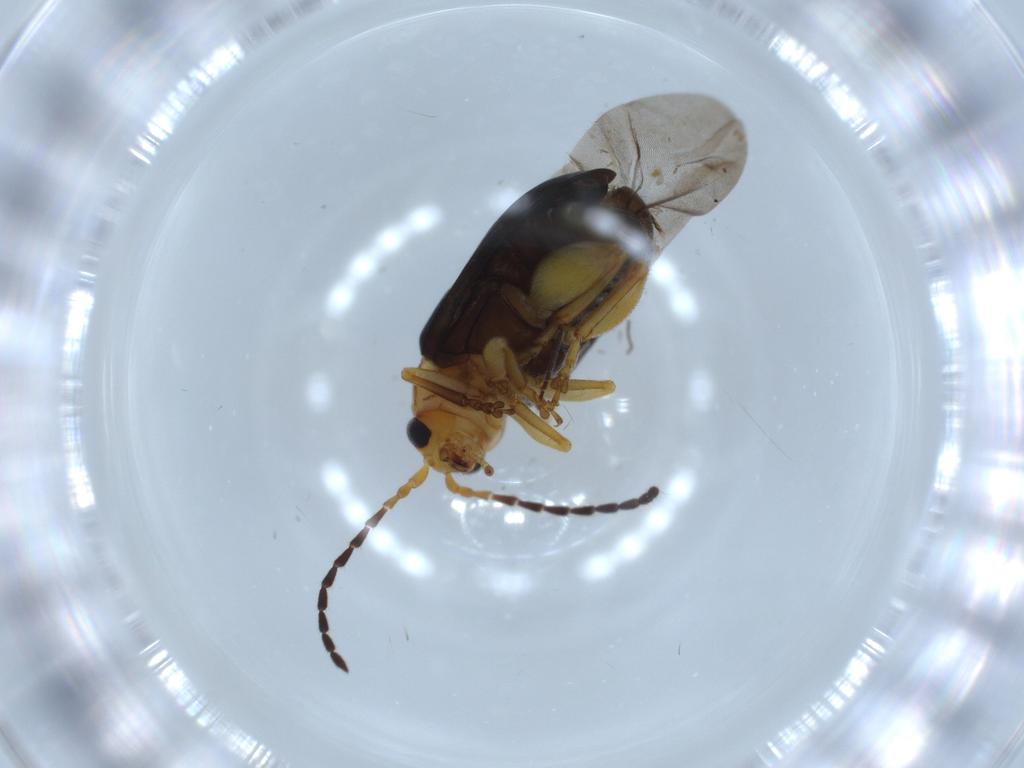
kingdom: Animalia
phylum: Arthropoda
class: Insecta
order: Coleoptera
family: Chrysomelidae
